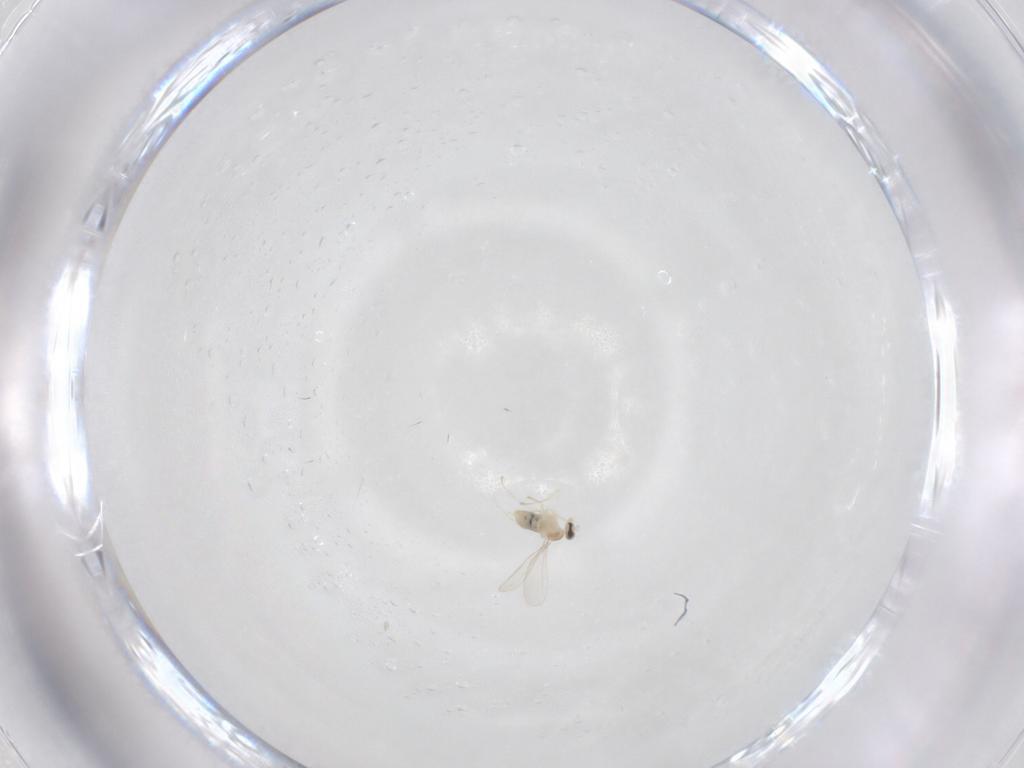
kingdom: Animalia
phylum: Arthropoda
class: Insecta
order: Diptera
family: Cecidomyiidae
